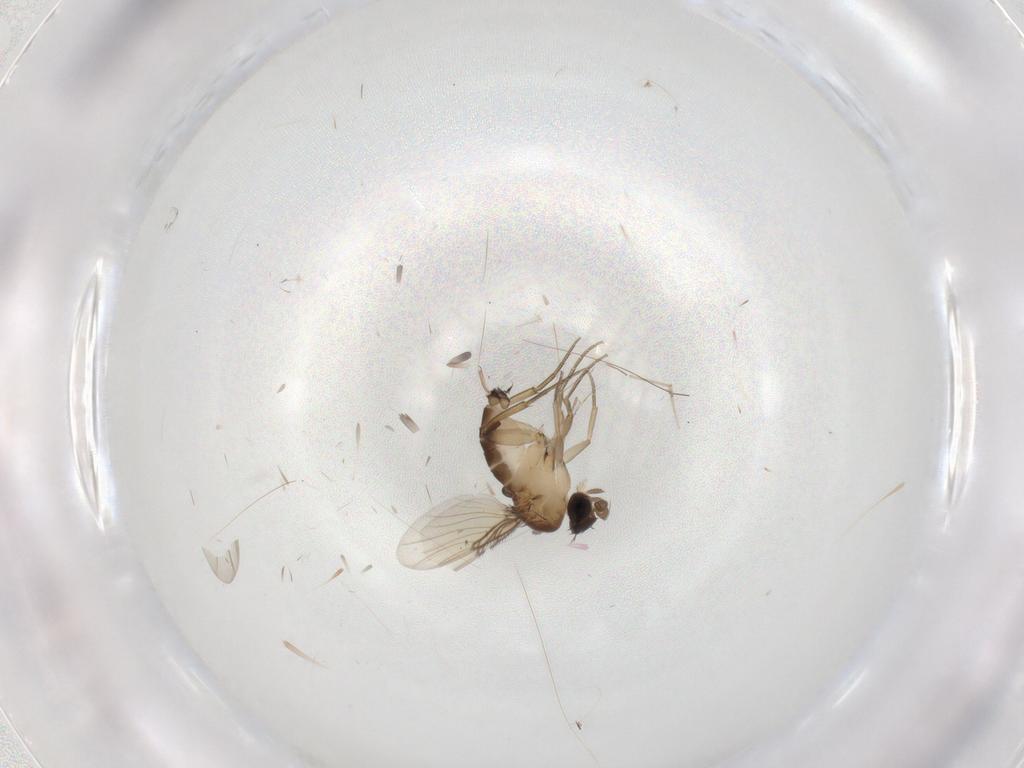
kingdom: Animalia
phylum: Arthropoda
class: Insecta
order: Diptera
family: Phoridae
